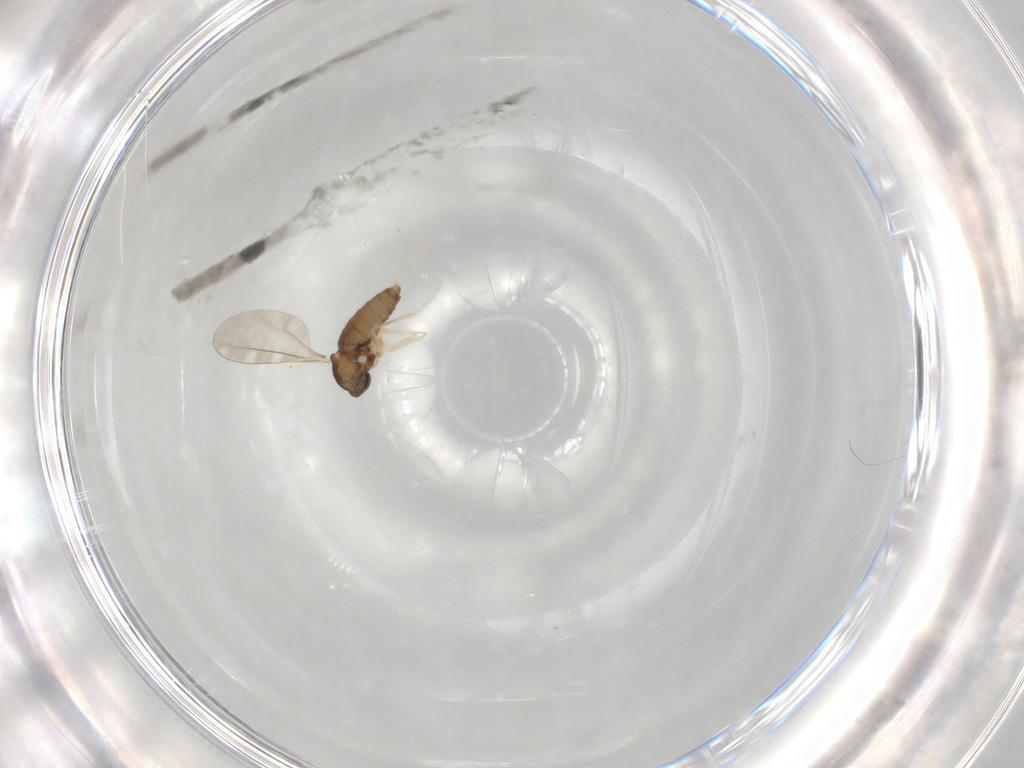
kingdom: Animalia
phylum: Arthropoda
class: Insecta
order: Diptera
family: Cecidomyiidae
